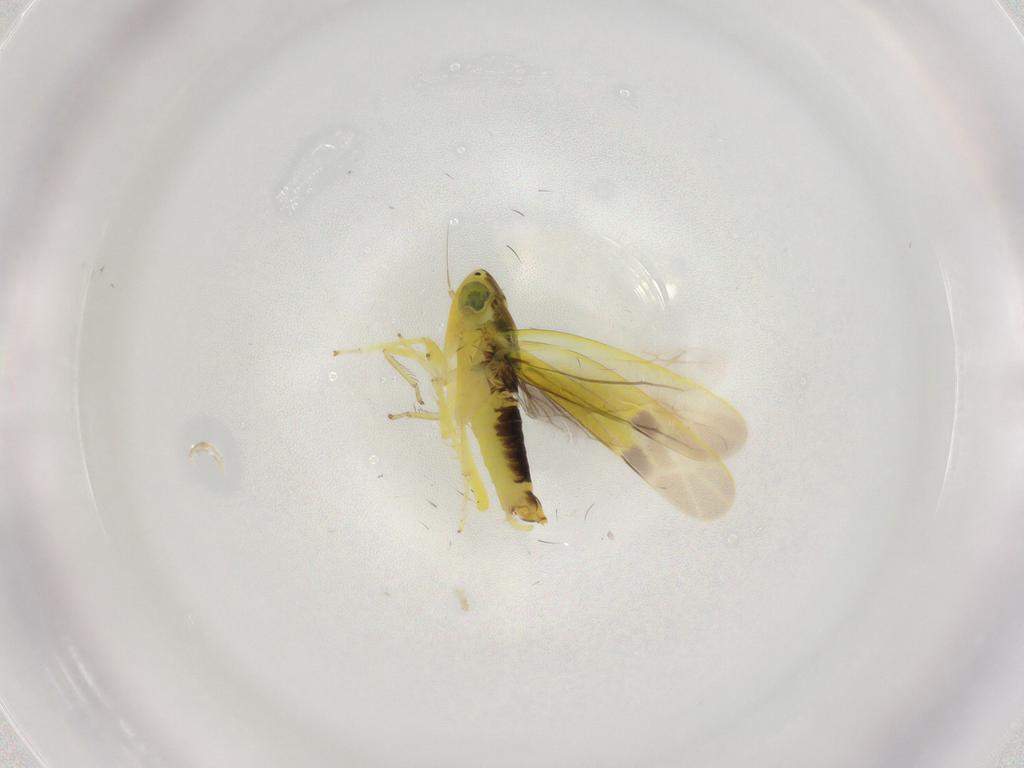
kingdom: Animalia
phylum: Arthropoda
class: Insecta
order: Hemiptera
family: Cicadellidae
